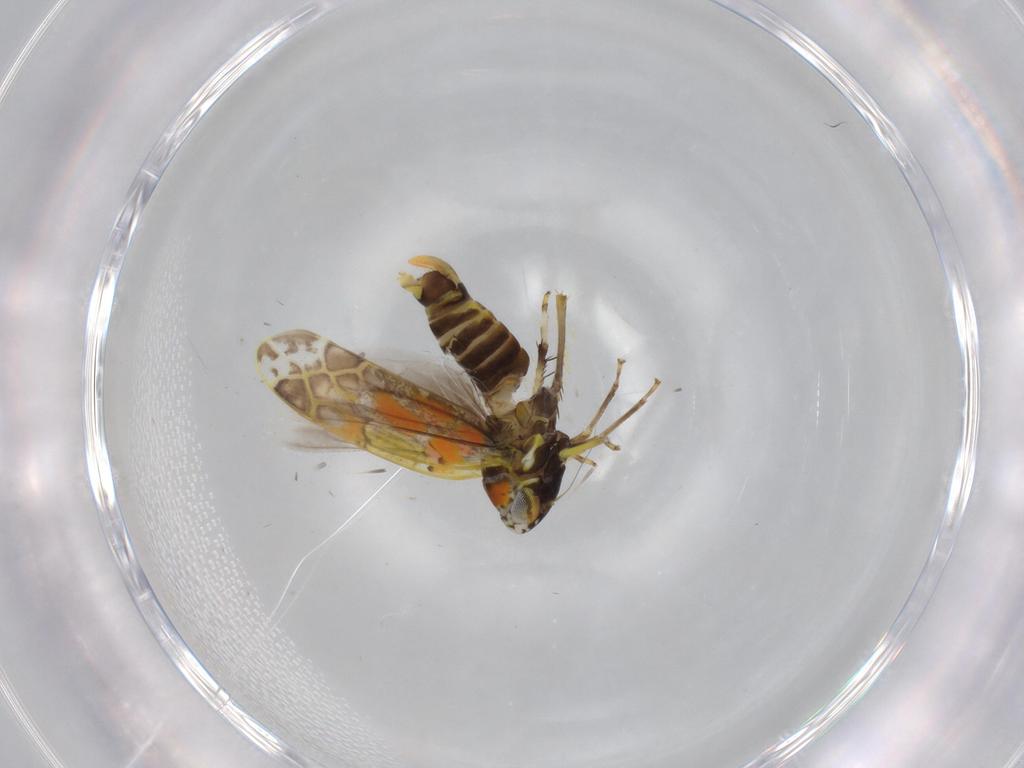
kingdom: Animalia
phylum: Arthropoda
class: Insecta
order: Hemiptera
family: Cicadellidae
